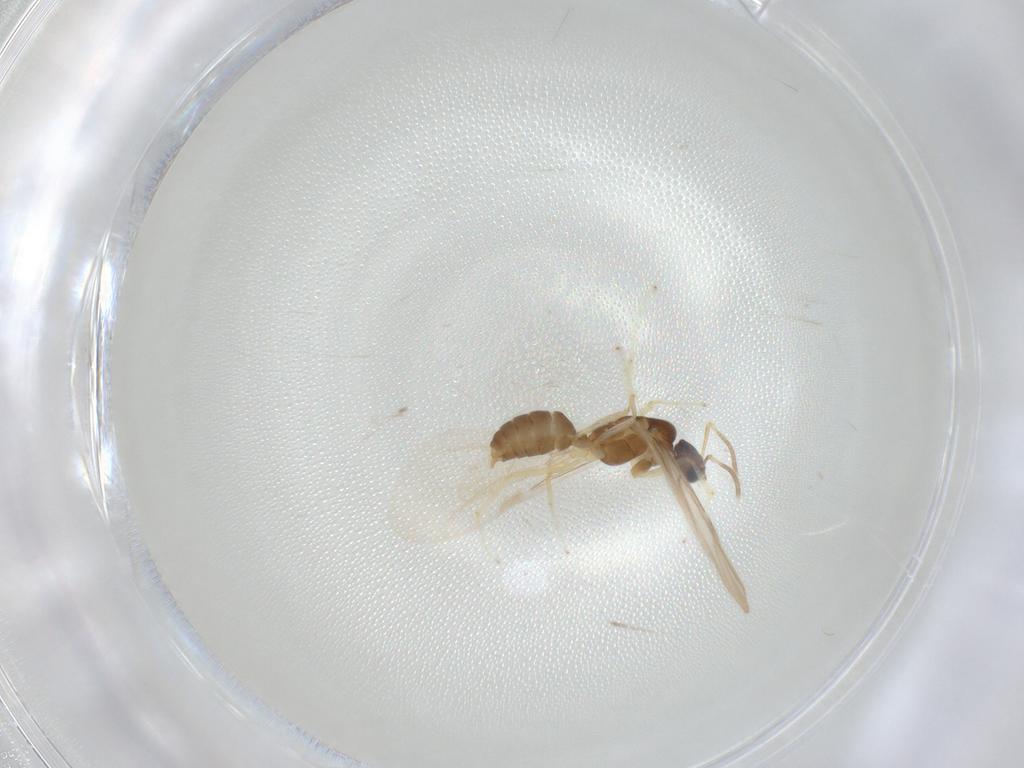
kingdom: Animalia
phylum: Arthropoda
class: Insecta
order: Hymenoptera
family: Formicidae
